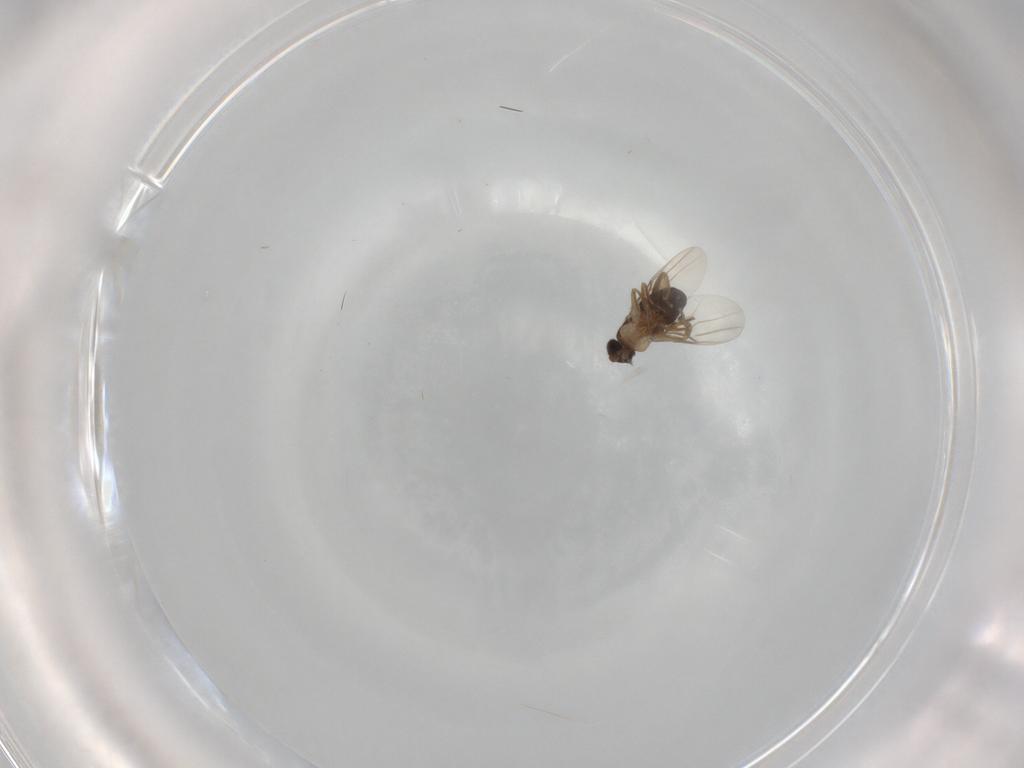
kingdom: Animalia
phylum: Arthropoda
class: Insecta
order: Diptera
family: Phoridae
